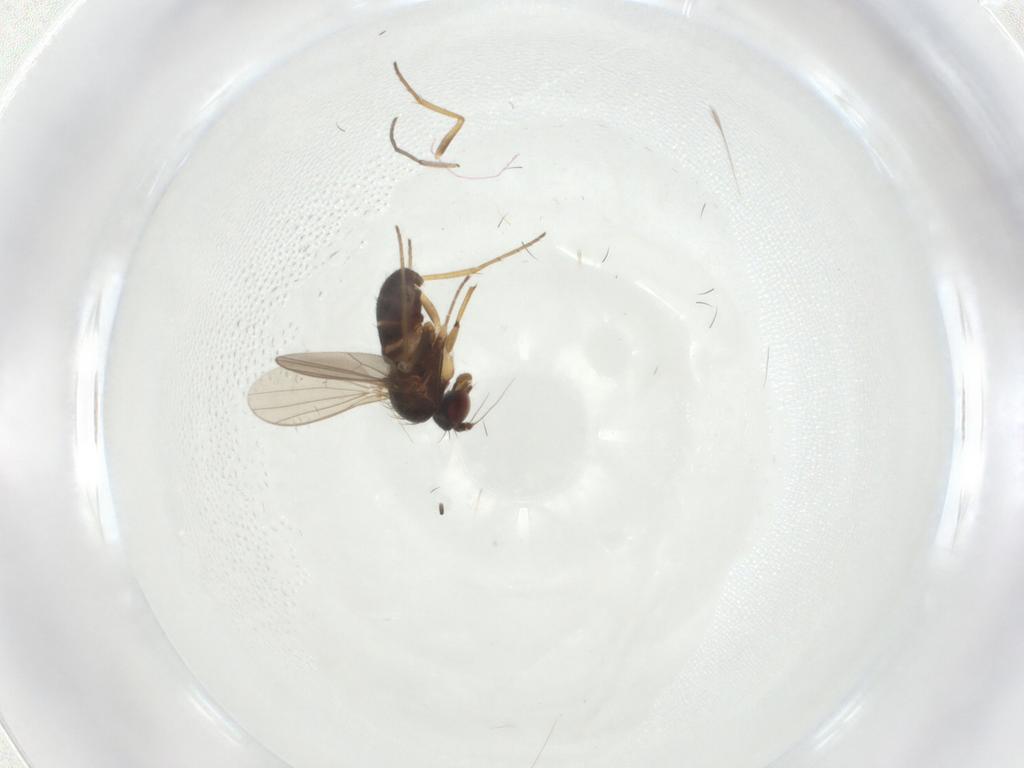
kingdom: Animalia
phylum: Arthropoda
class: Insecta
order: Diptera
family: Dolichopodidae
